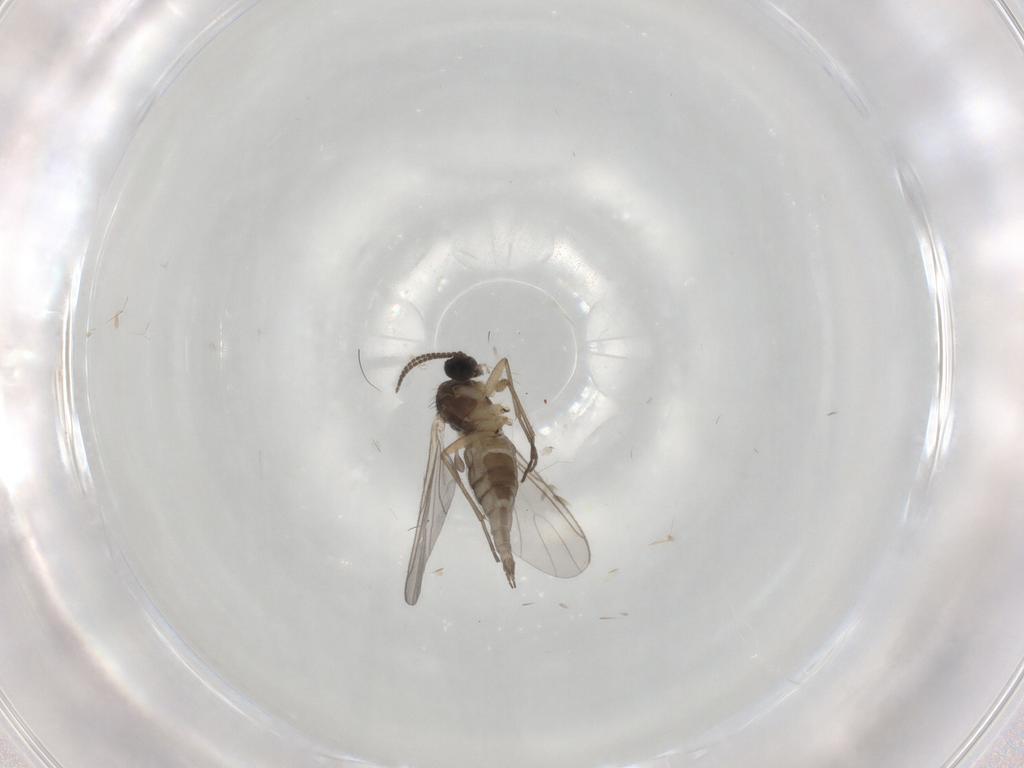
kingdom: Animalia
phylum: Arthropoda
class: Insecta
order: Diptera
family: Sciaridae
